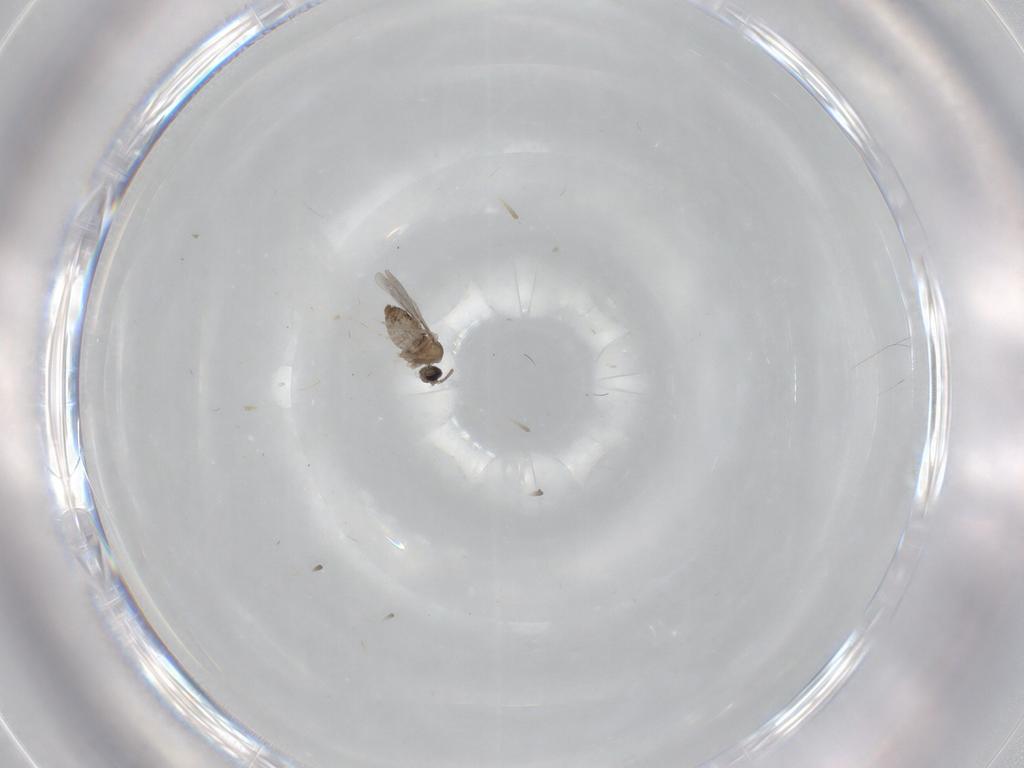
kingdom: Animalia
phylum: Arthropoda
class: Insecta
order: Diptera
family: Cecidomyiidae
